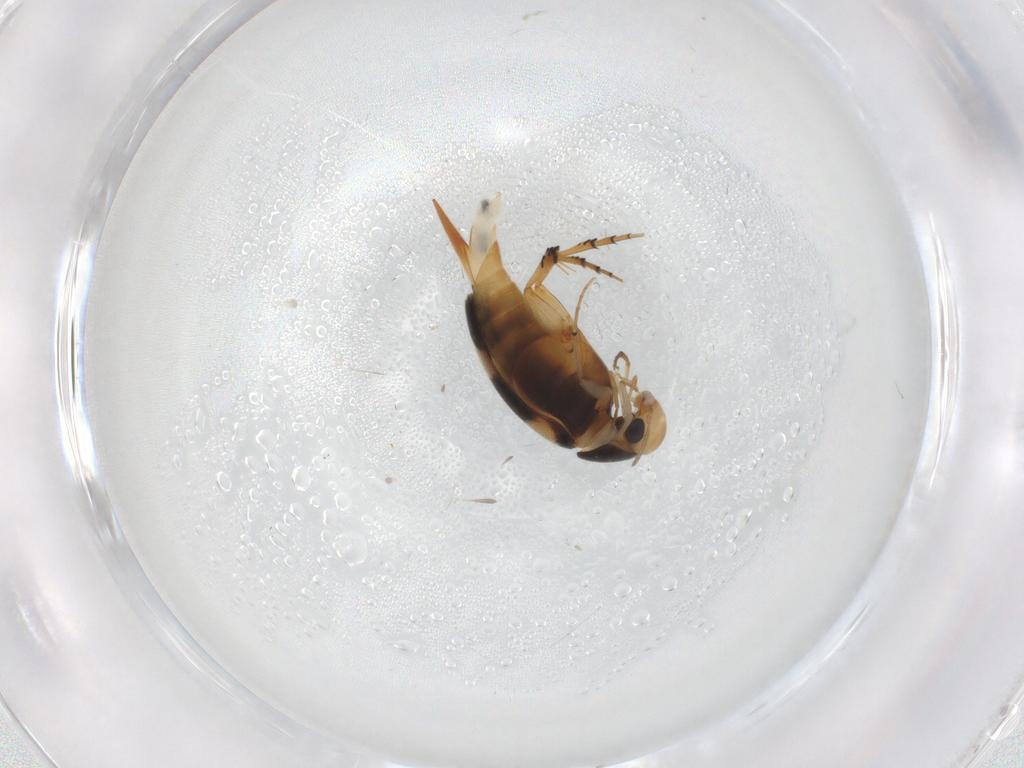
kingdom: Animalia
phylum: Arthropoda
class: Insecta
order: Coleoptera
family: Mordellidae
